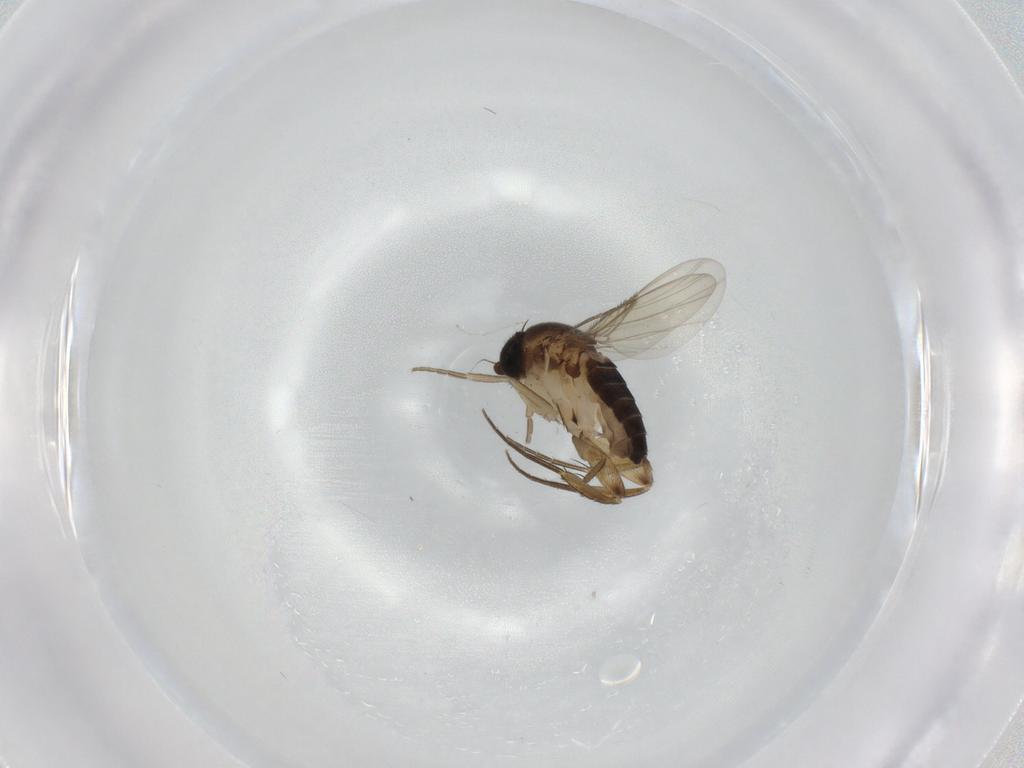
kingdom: Animalia
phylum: Arthropoda
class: Insecta
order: Diptera
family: Phoridae
